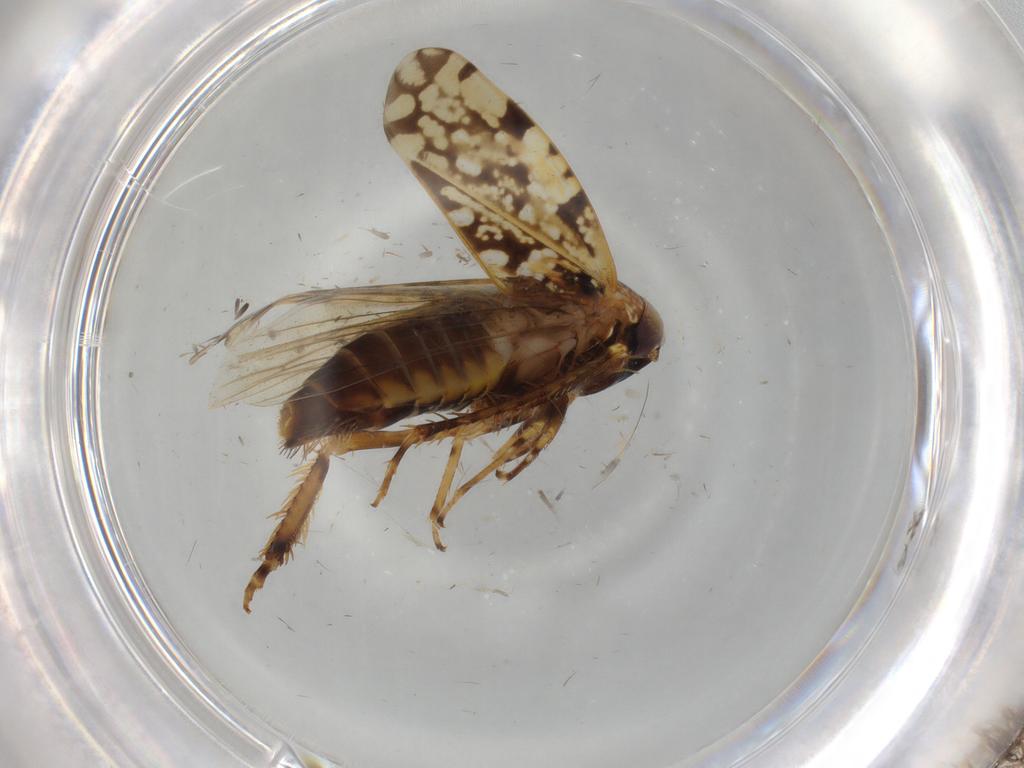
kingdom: Animalia
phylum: Arthropoda
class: Insecta
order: Hemiptera
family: Cicadellidae
